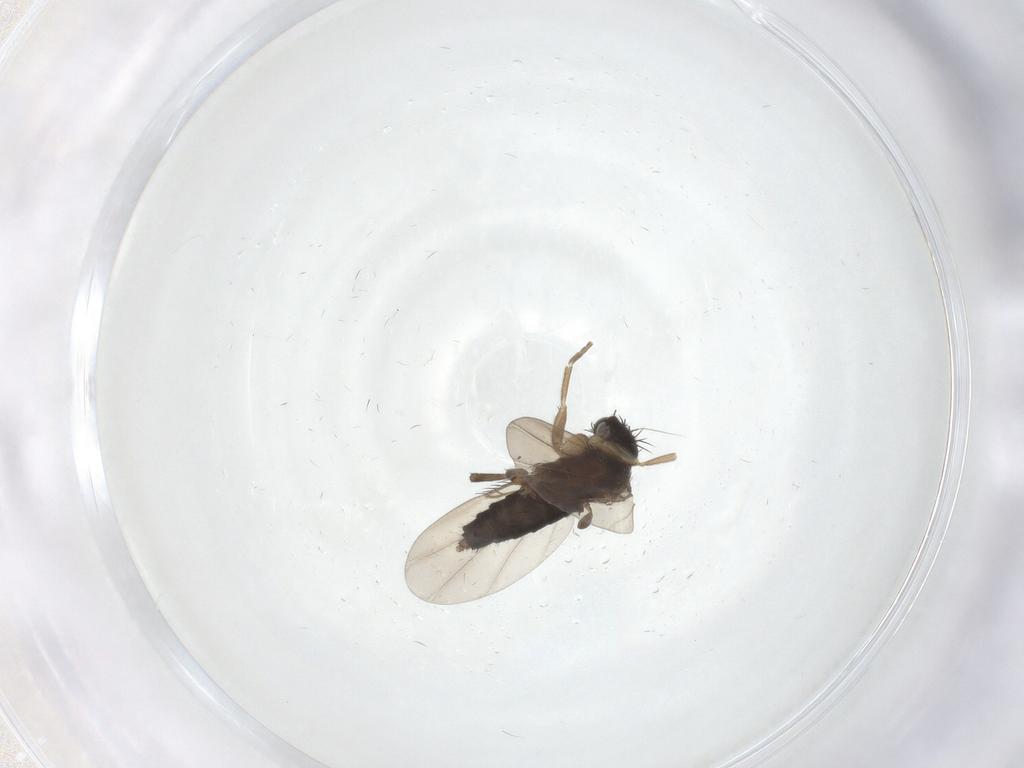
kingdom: Animalia
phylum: Arthropoda
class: Insecta
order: Diptera
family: Phoridae
